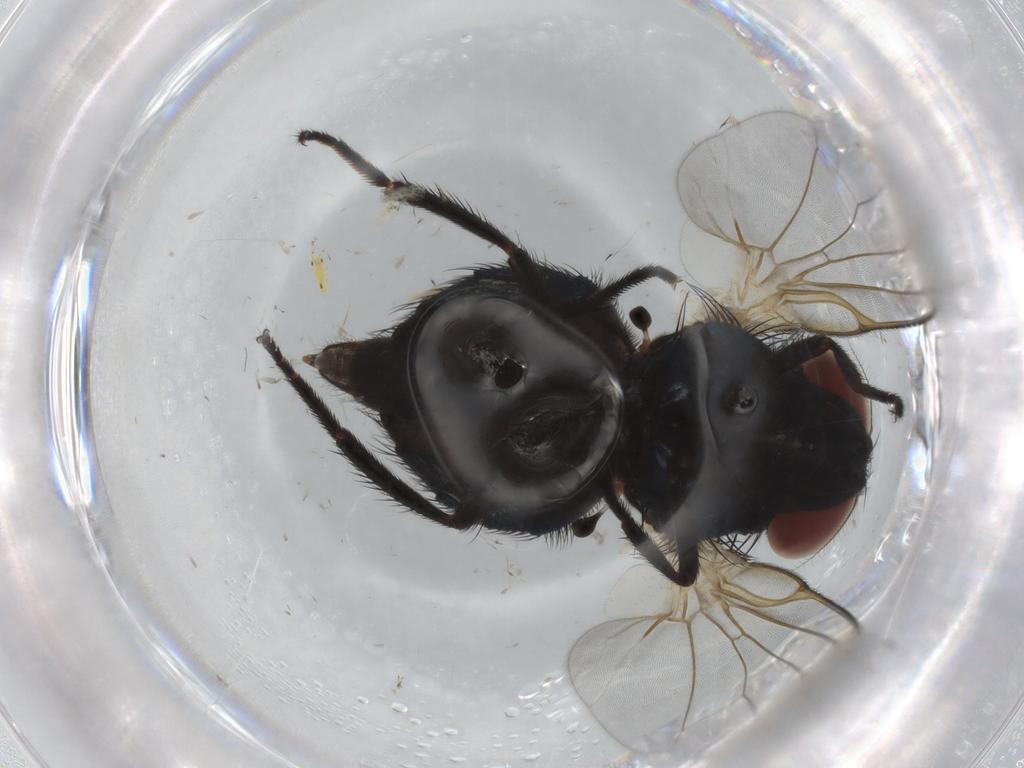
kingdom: Animalia
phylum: Arthropoda
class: Insecta
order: Diptera
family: Lonchaeidae
